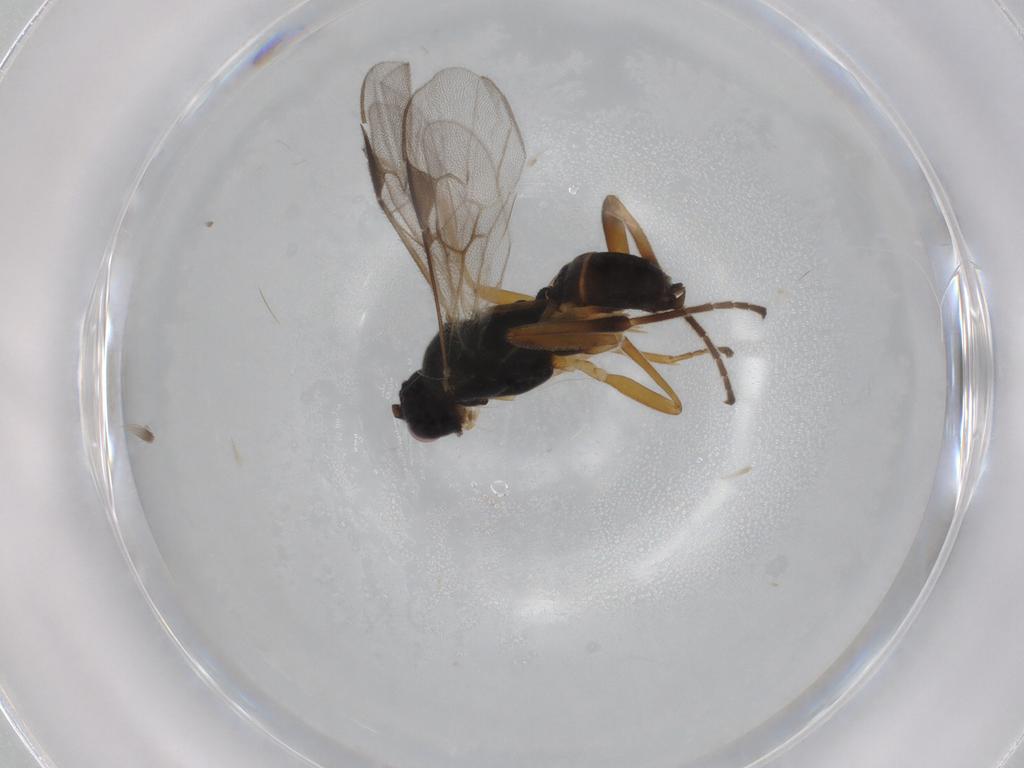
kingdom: Animalia
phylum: Arthropoda
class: Insecta
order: Hymenoptera
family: Braconidae
